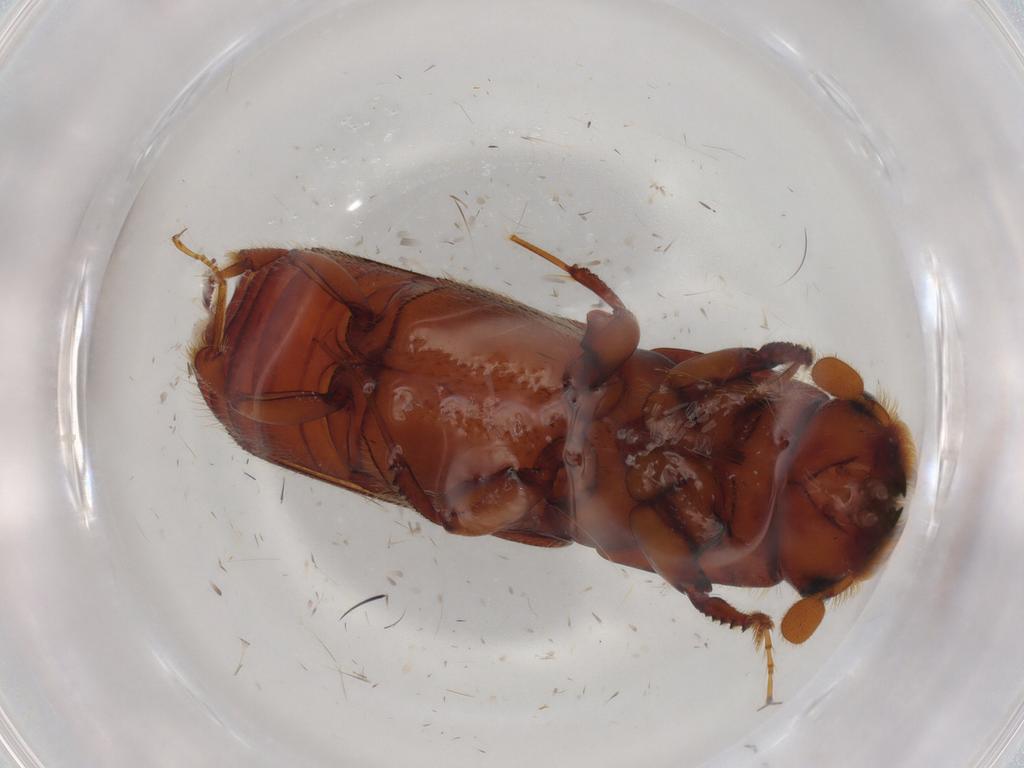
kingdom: Animalia
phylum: Arthropoda
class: Insecta
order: Coleoptera
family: Curculionidae
